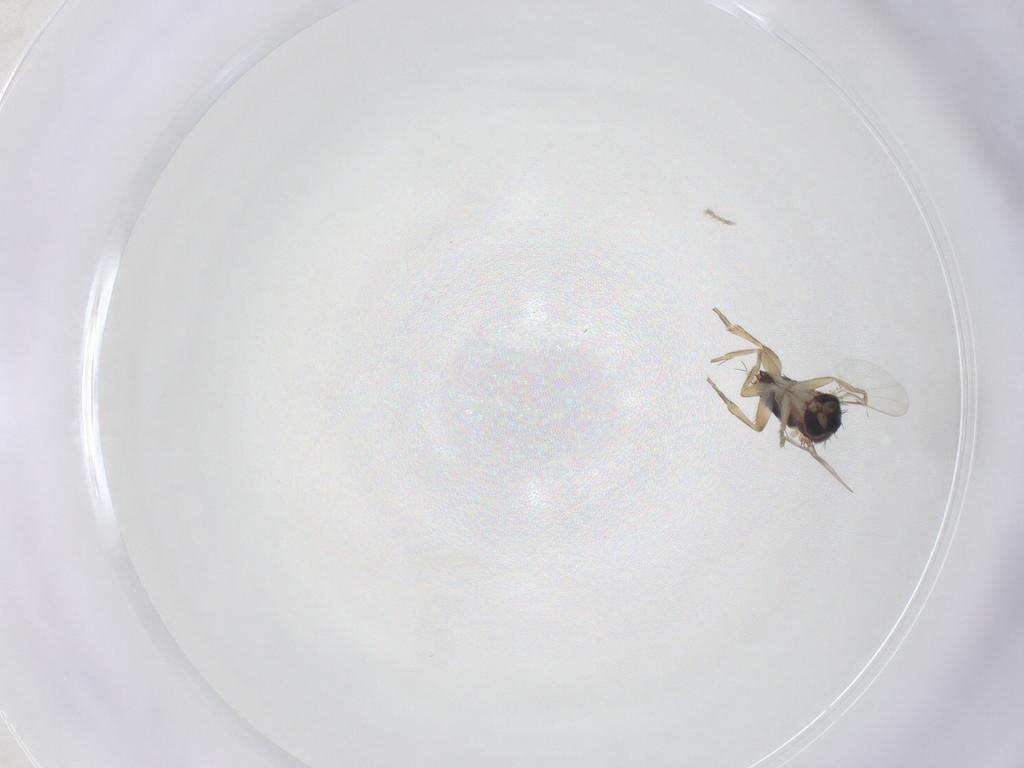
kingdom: Animalia
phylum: Arthropoda
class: Insecta
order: Diptera
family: Phoridae
